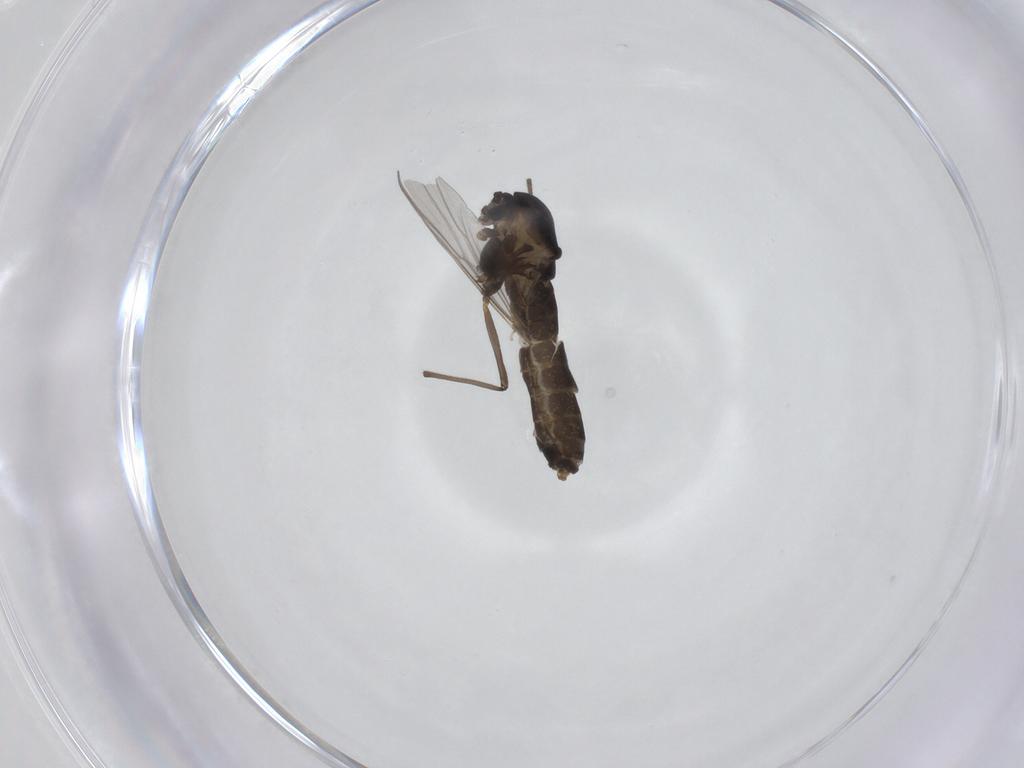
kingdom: Animalia
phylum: Arthropoda
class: Insecta
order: Diptera
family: Chironomidae
